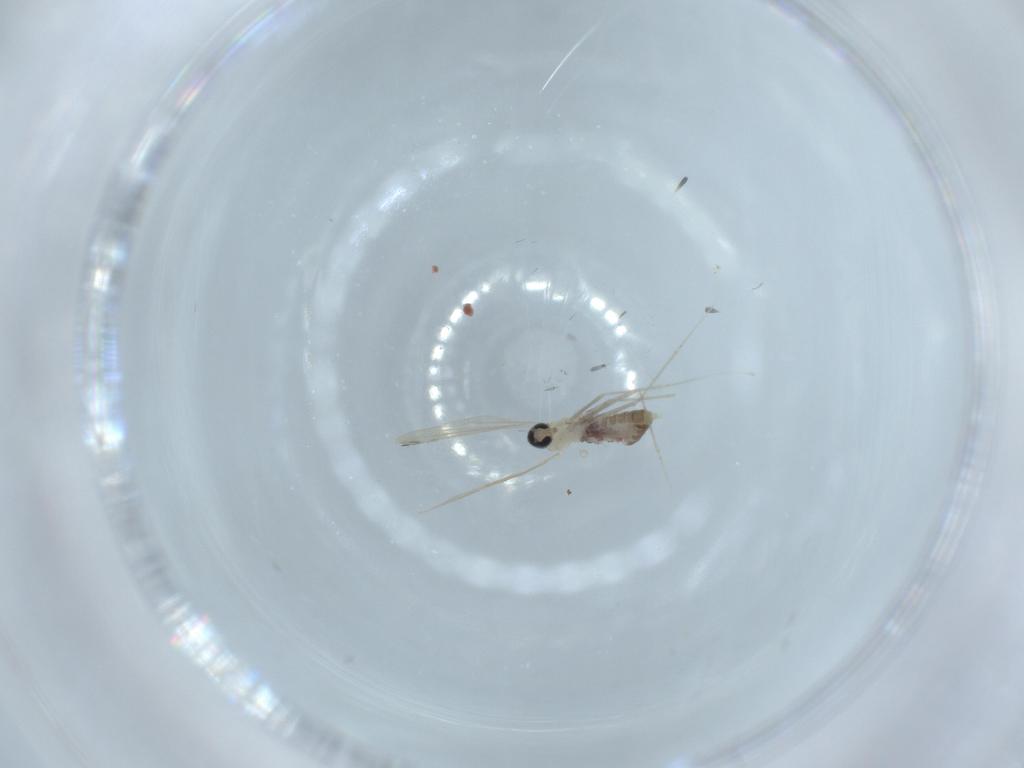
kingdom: Animalia
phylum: Arthropoda
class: Insecta
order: Diptera
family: Cecidomyiidae
